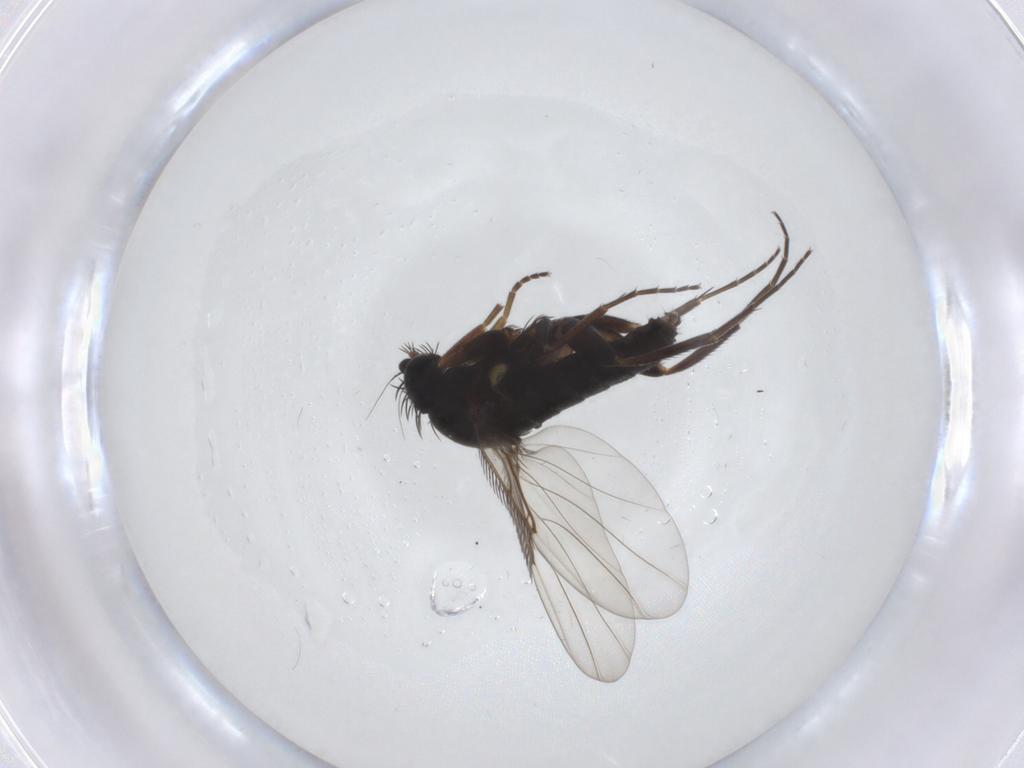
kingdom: Animalia
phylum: Arthropoda
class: Insecta
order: Diptera
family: Phoridae
